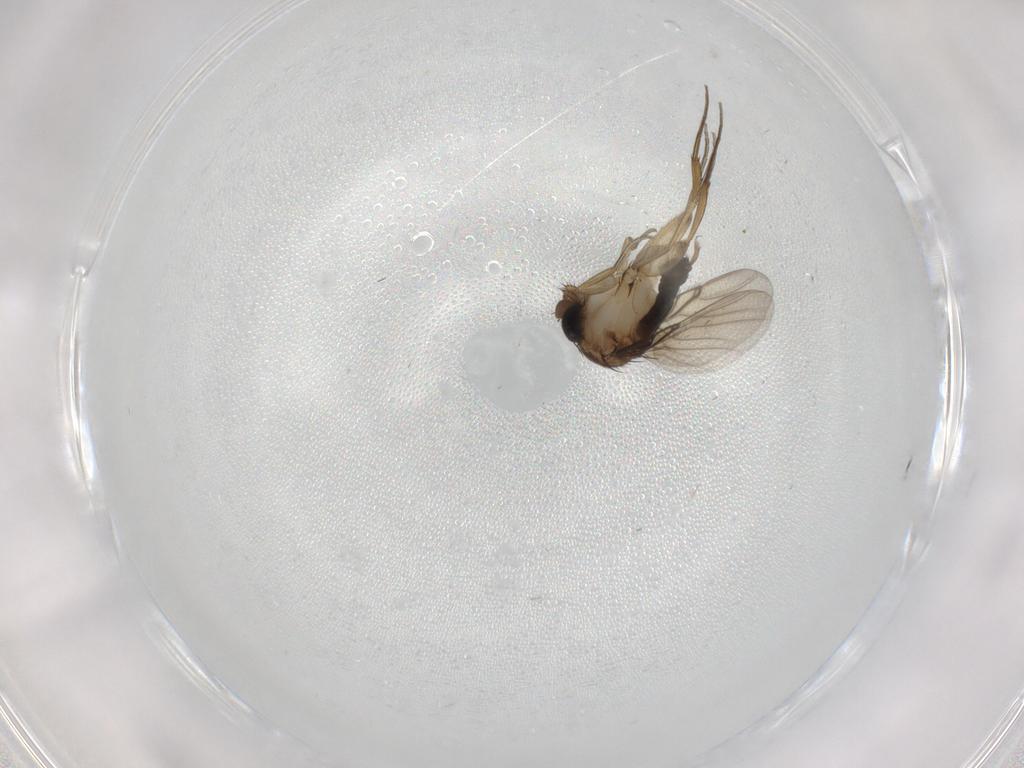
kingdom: Animalia
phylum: Arthropoda
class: Insecta
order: Diptera
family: Phoridae
